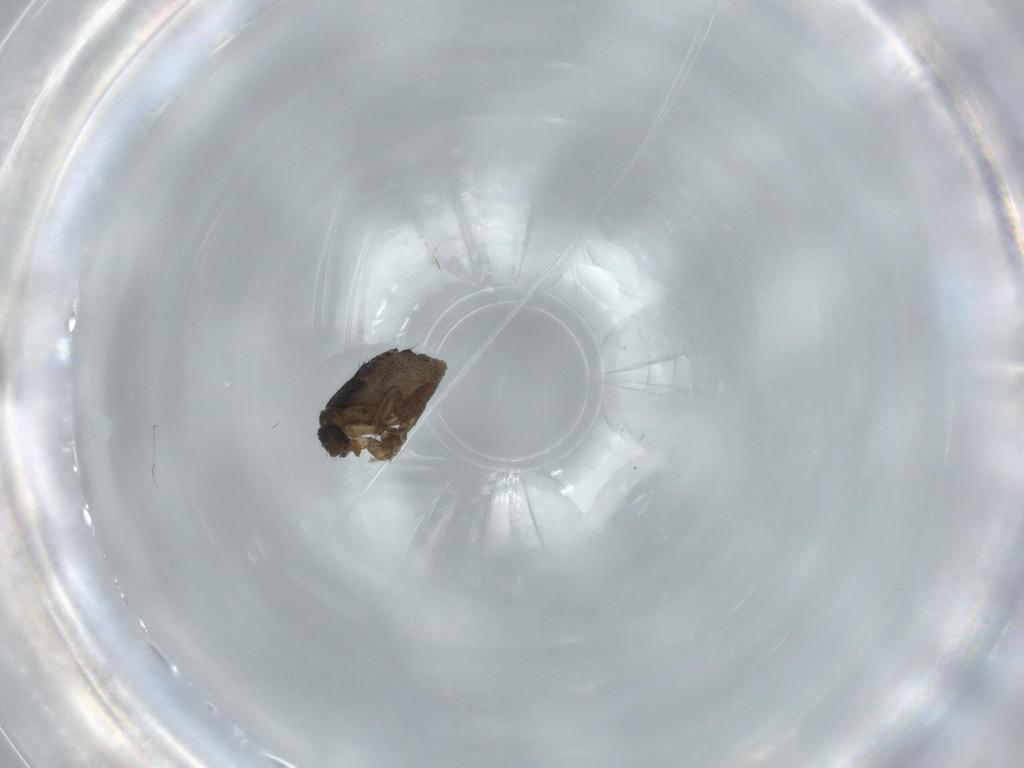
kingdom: Animalia
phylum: Arthropoda
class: Insecta
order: Diptera
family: Phoridae
